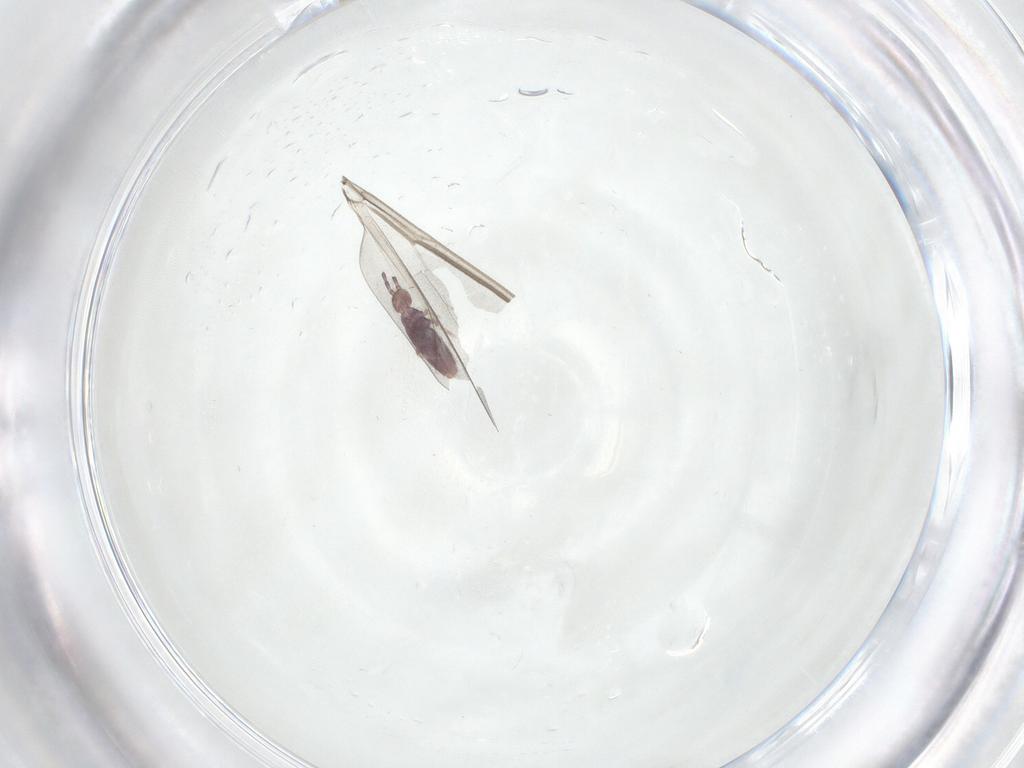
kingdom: Animalia
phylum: Arthropoda
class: Insecta
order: Diptera
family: Cecidomyiidae
